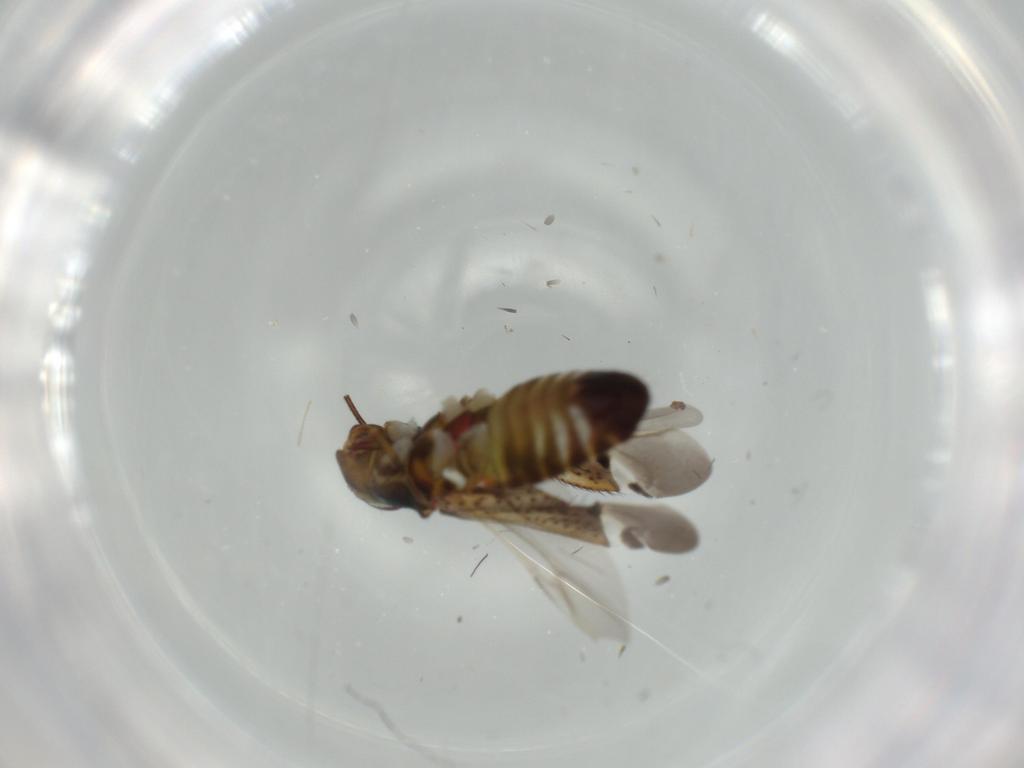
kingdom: Animalia
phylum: Arthropoda
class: Insecta
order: Hemiptera
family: Miridae
